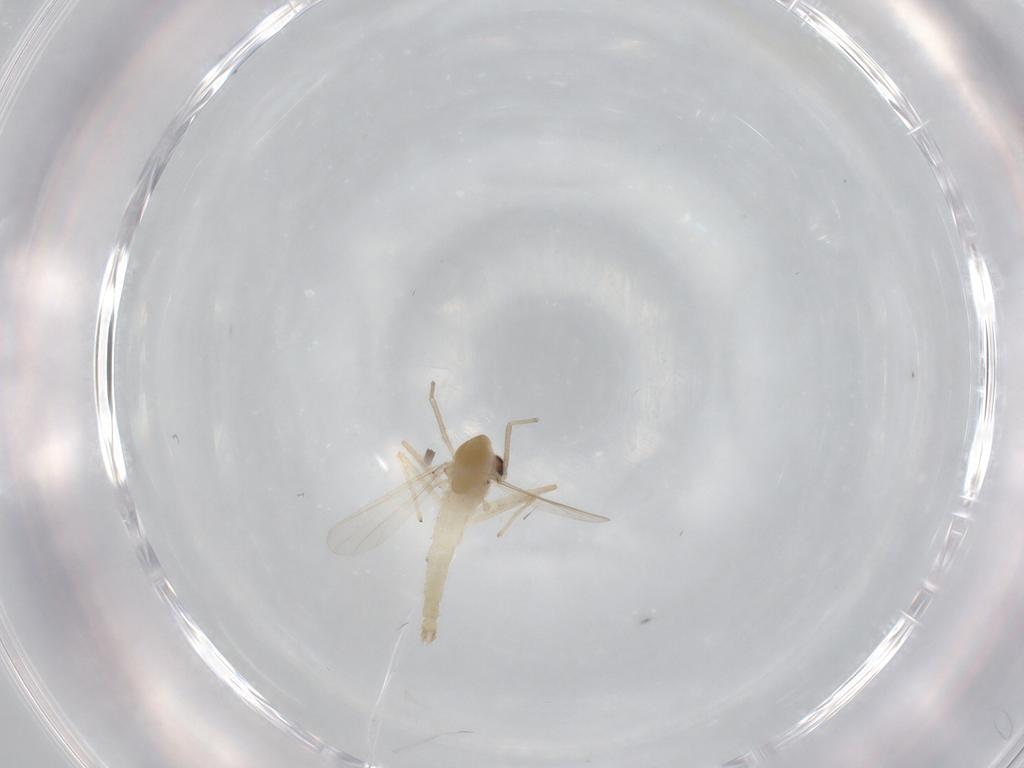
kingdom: Animalia
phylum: Arthropoda
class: Insecta
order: Diptera
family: Chironomidae
